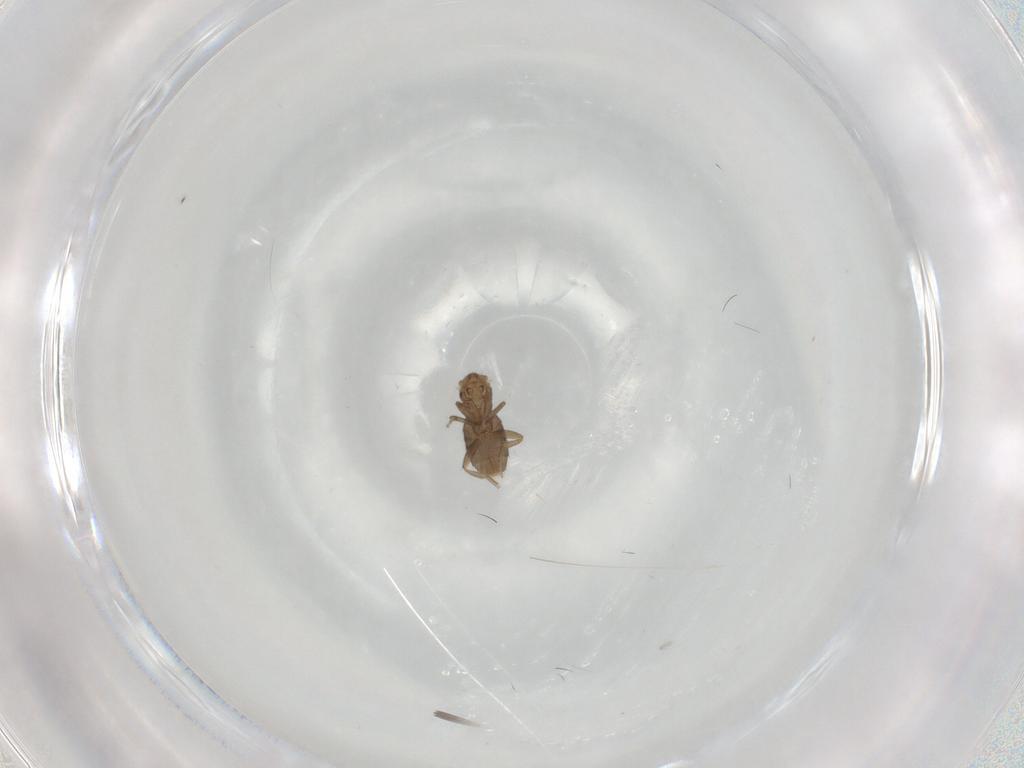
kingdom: Animalia
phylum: Arthropoda
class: Insecta
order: Diptera
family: Phoridae
